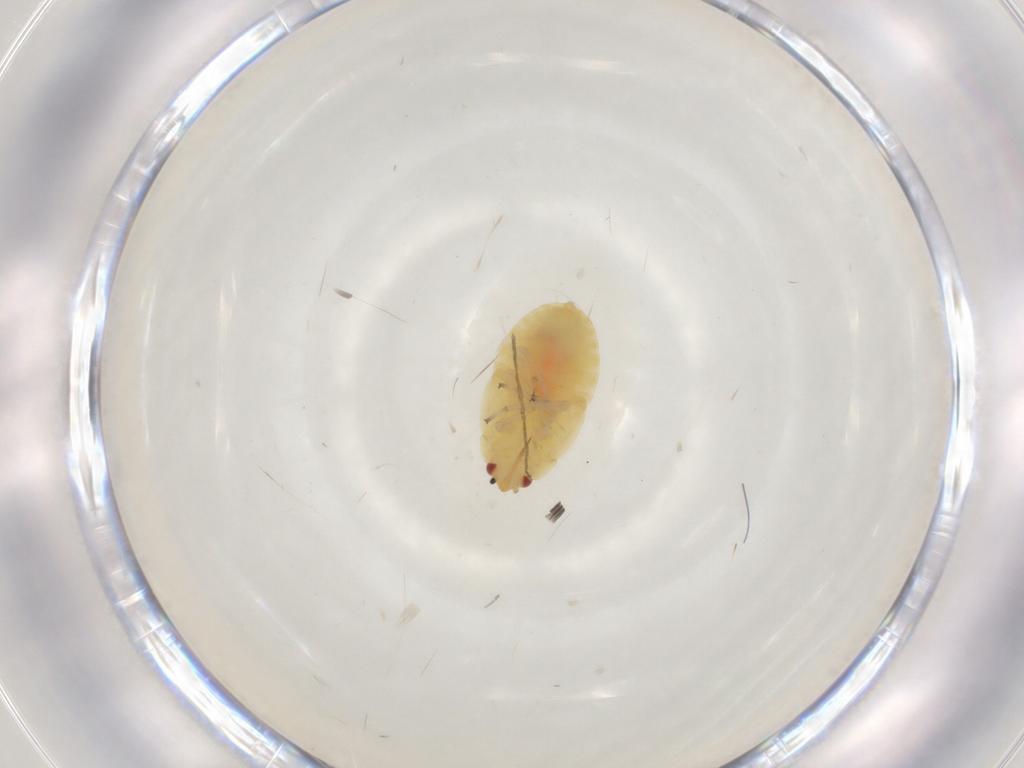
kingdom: Animalia
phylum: Arthropoda
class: Insecta
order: Hemiptera
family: Anthocoridae
